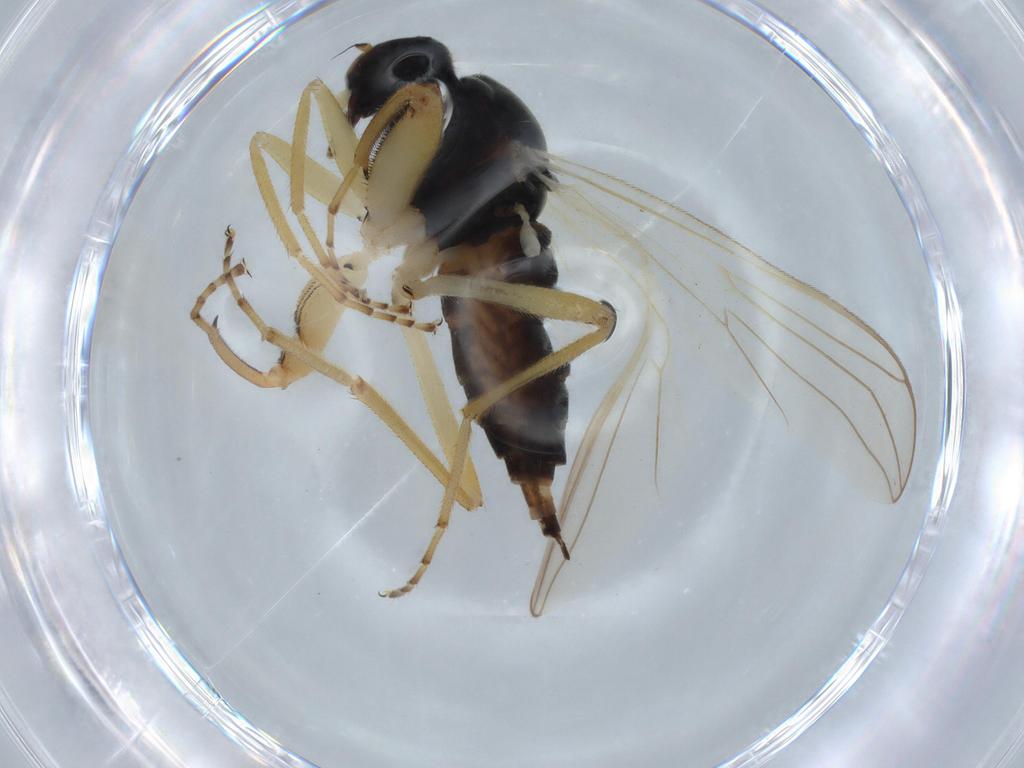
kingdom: Animalia
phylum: Arthropoda
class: Insecta
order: Diptera
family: Hybotidae
